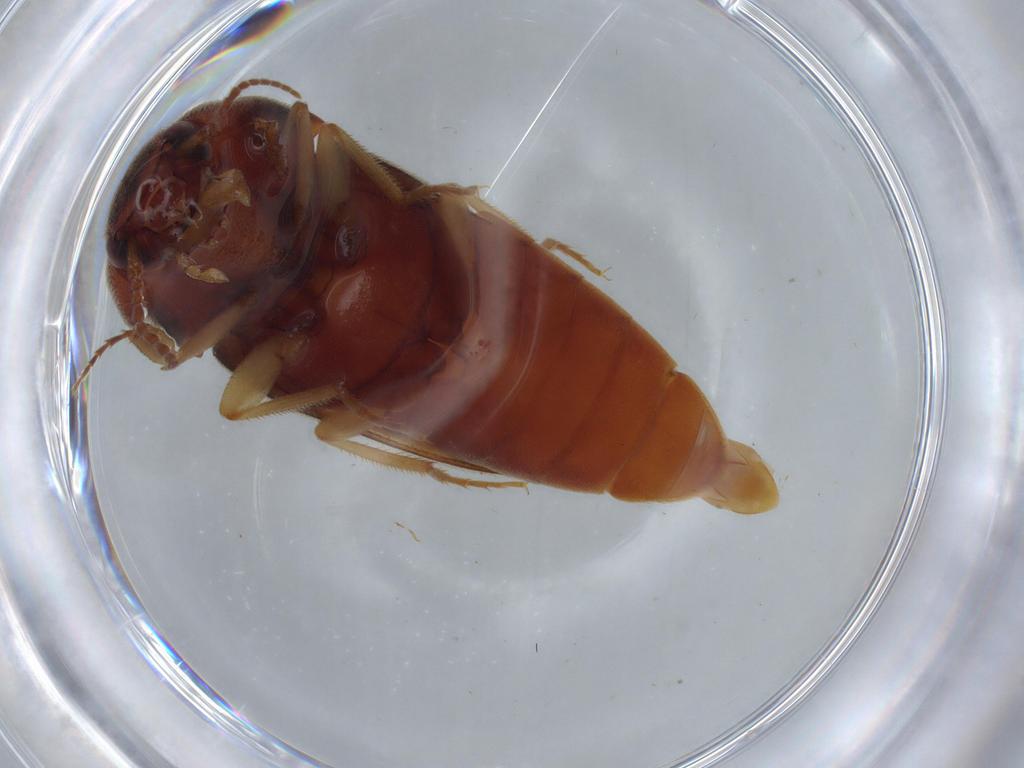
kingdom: Animalia
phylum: Arthropoda
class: Insecta
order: Coleoptera
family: Elateridae
